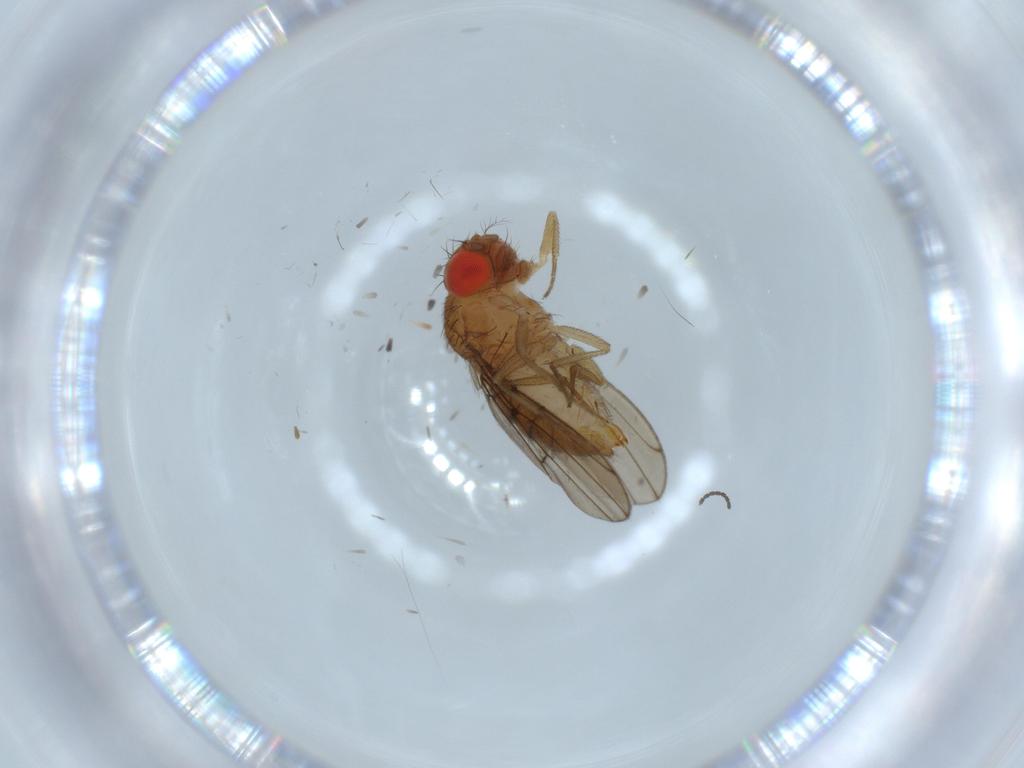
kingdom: Animalia
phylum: Arthropoda
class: Insecta
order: Diptera
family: Drosophilidae
